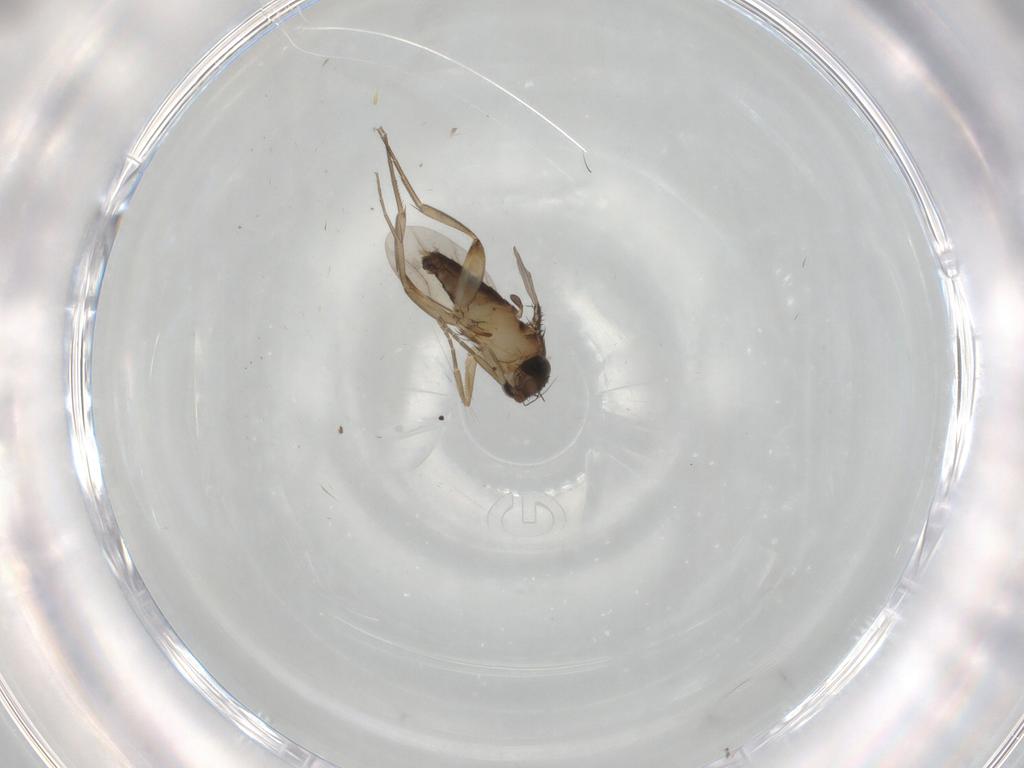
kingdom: Animalia
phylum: Arthropoda
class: Insecta
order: Diptera
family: Phoridae
